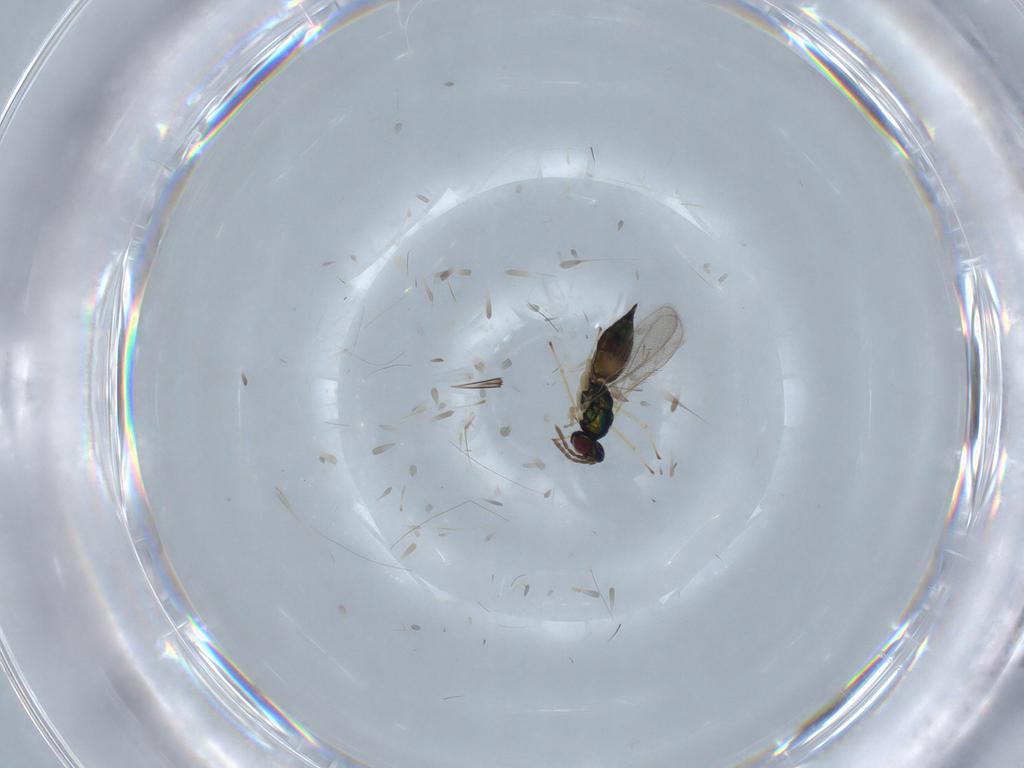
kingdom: Animalia
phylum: Arthropoda
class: Insecta
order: Hymenoptera
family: Eulophidae
